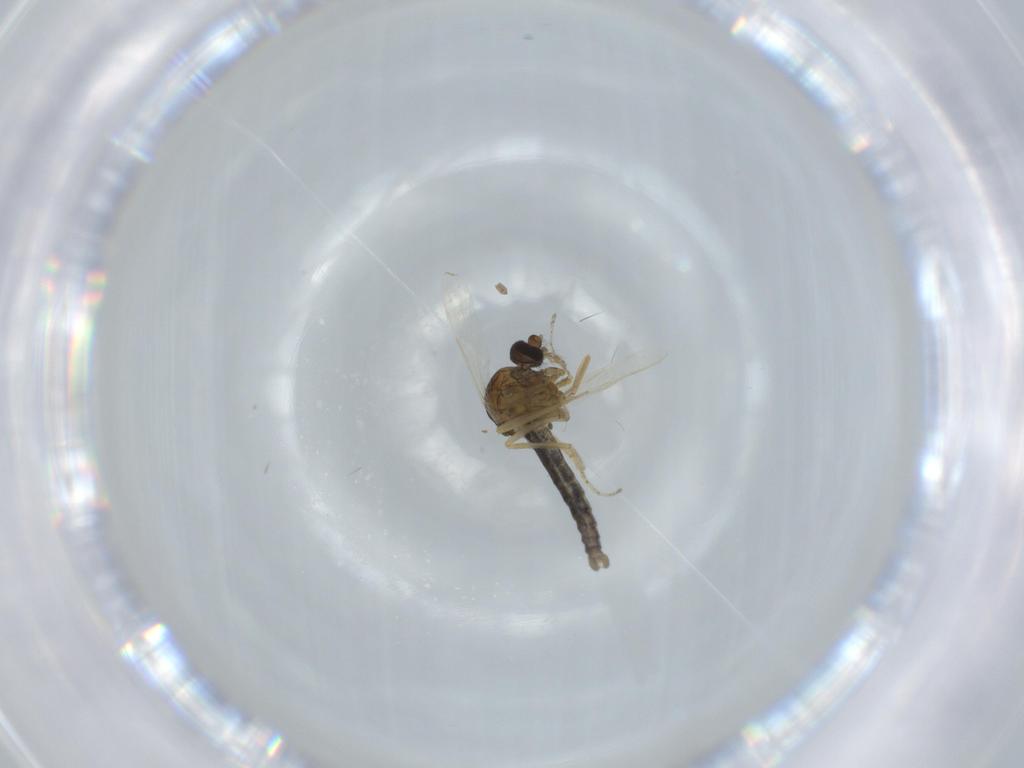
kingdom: Animalia
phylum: Arthropoda
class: Insecta
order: Diptera
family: Ceratopogonidae
